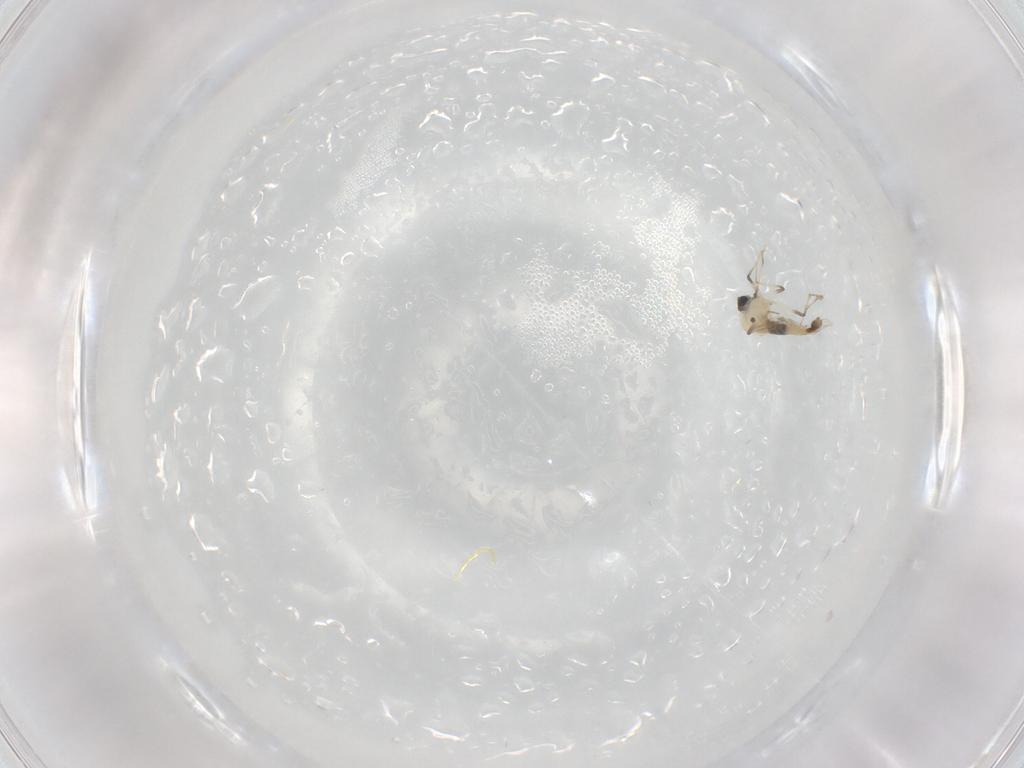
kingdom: Animalia
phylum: Arthropoda
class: Insecta
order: Diptera
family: Chironomidae
